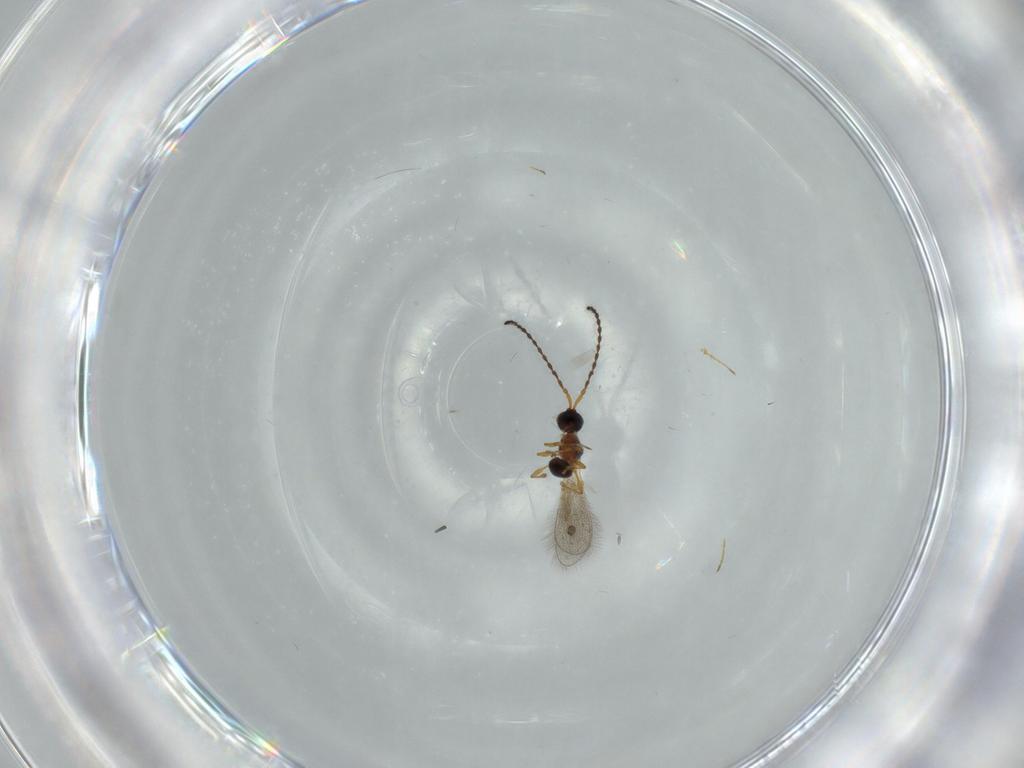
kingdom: Animalia
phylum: Arthropoda
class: Insecta
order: Hymenoptera
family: Diapriidae
